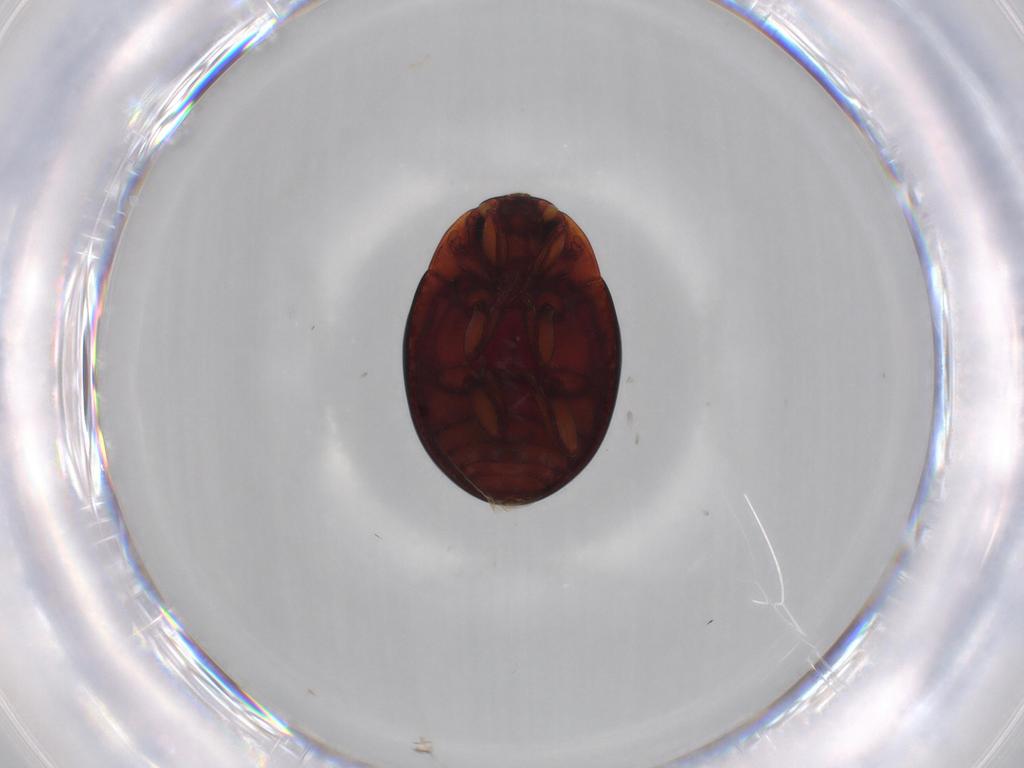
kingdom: Animalia
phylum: Arthropoda
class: Insecta
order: Coleoptera
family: Zopheridae
